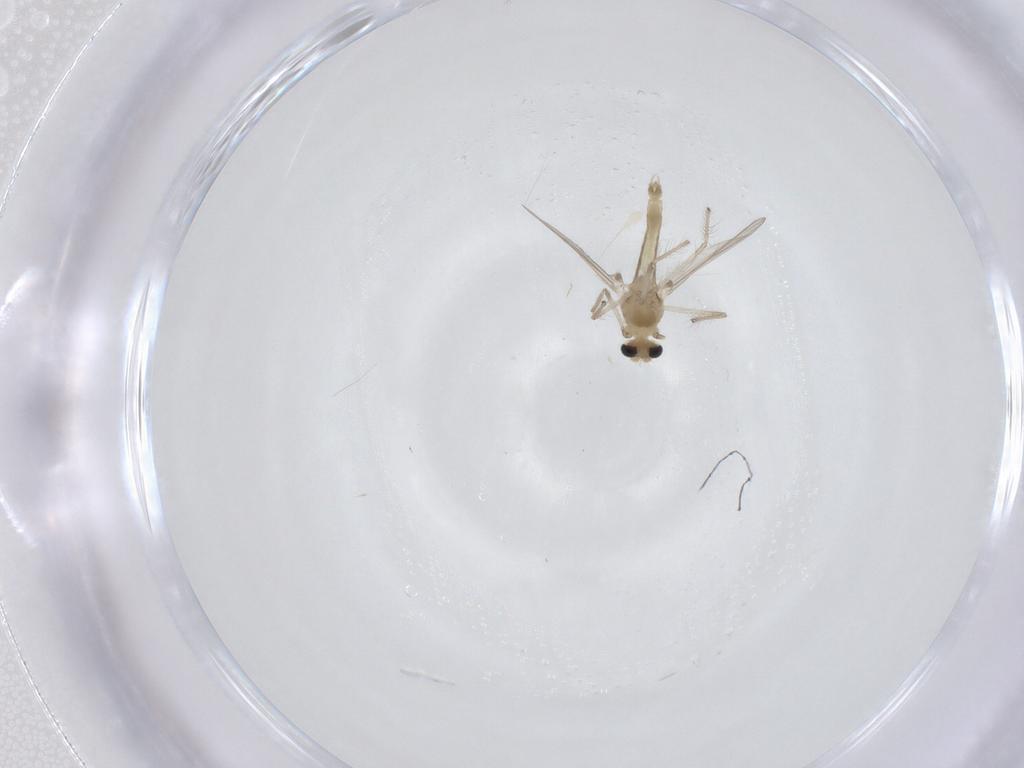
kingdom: Animalia
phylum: Arthropoda
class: Insecta
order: Diptera
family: Chironomidae
